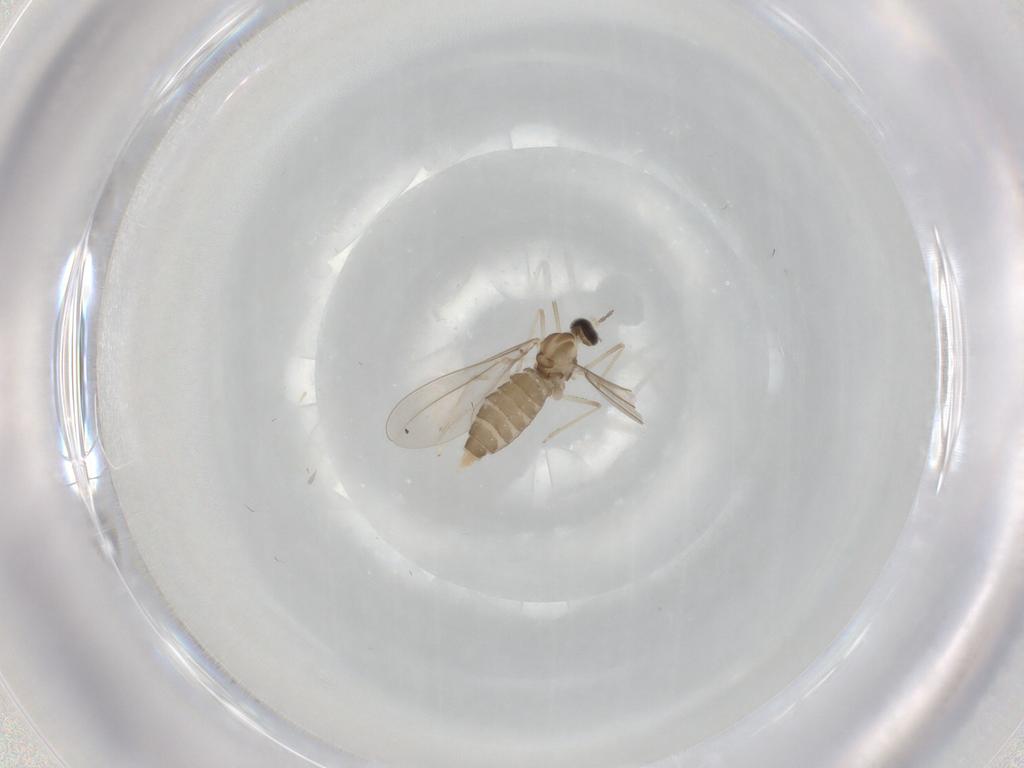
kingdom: Animalia
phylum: Arthropoda
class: Insecta
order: Diptera
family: Cecidomyiidae
